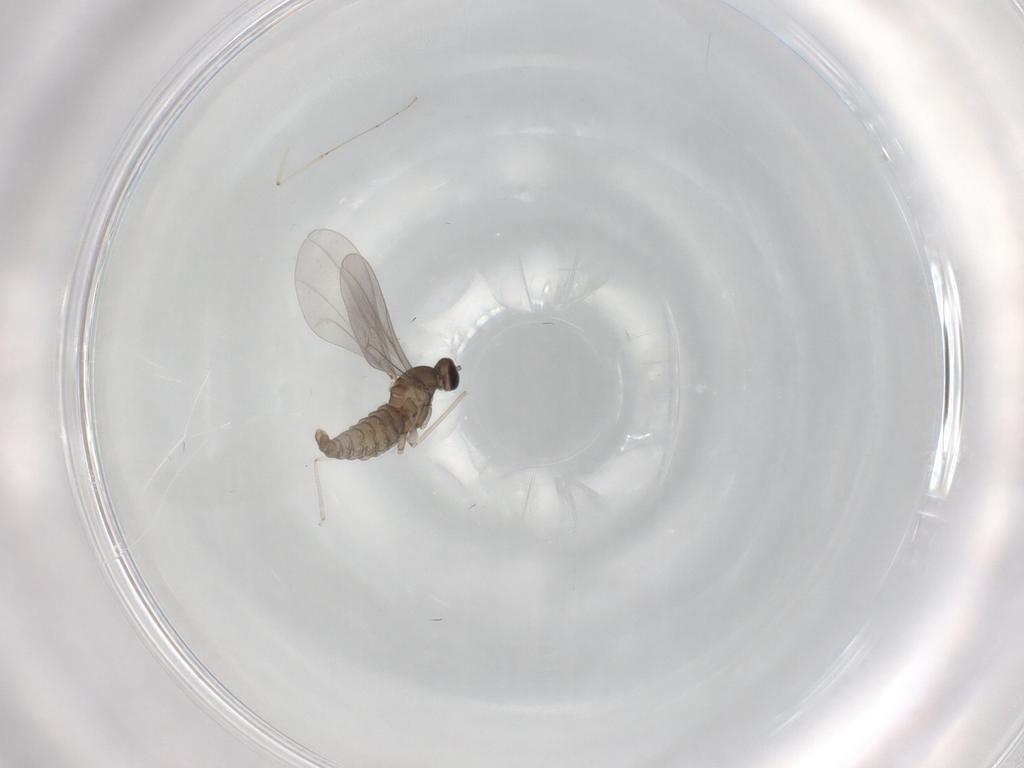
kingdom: Animalia
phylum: Arthropoda
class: Insecta
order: Diptera
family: Cecidomyiidae
